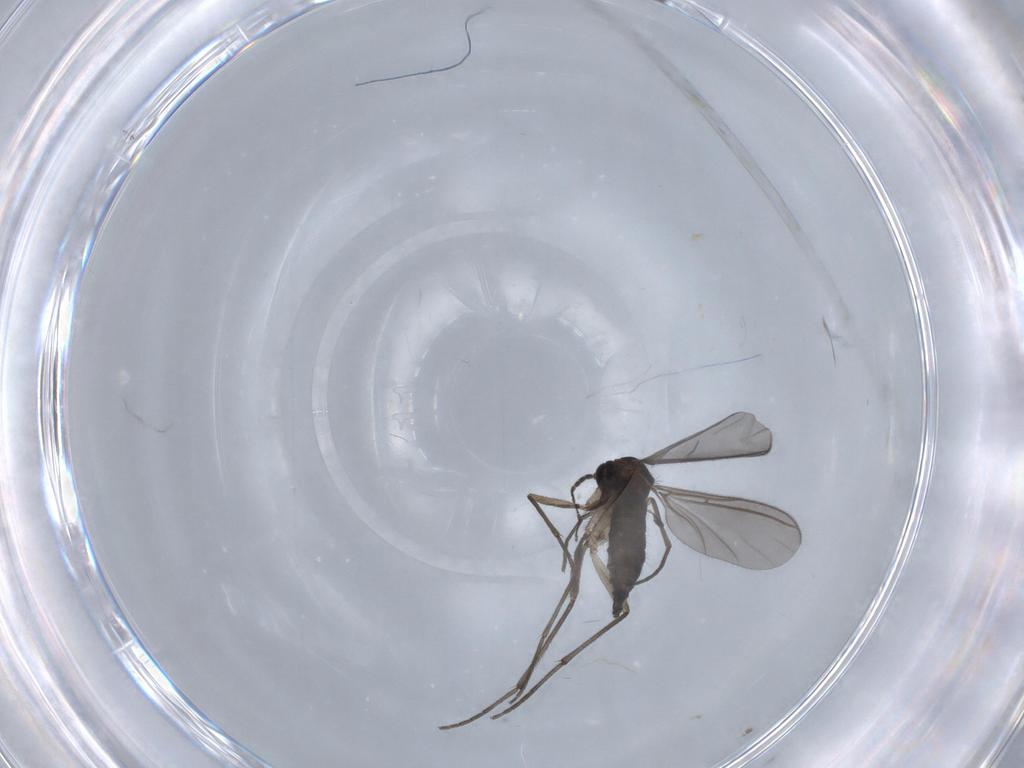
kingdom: Animalia
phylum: Arthropoda
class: Insecta
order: Diptera
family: Sciaridae
